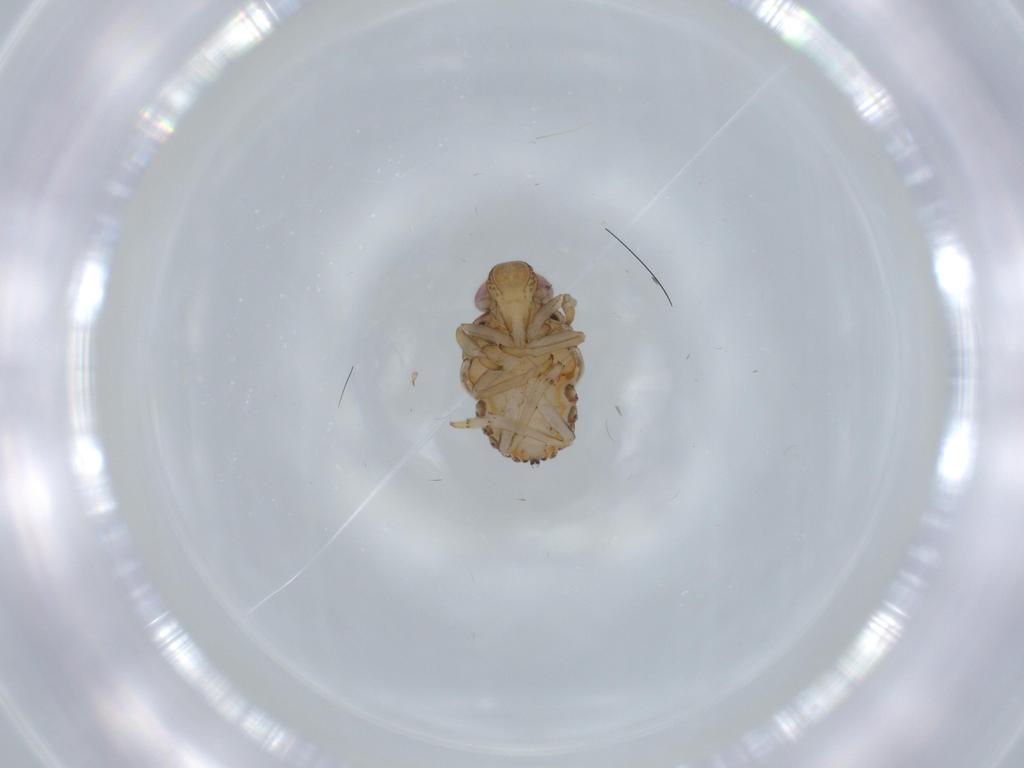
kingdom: Animalia
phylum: Arthropoda
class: Insecta
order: Hemiptera
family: Issidae
